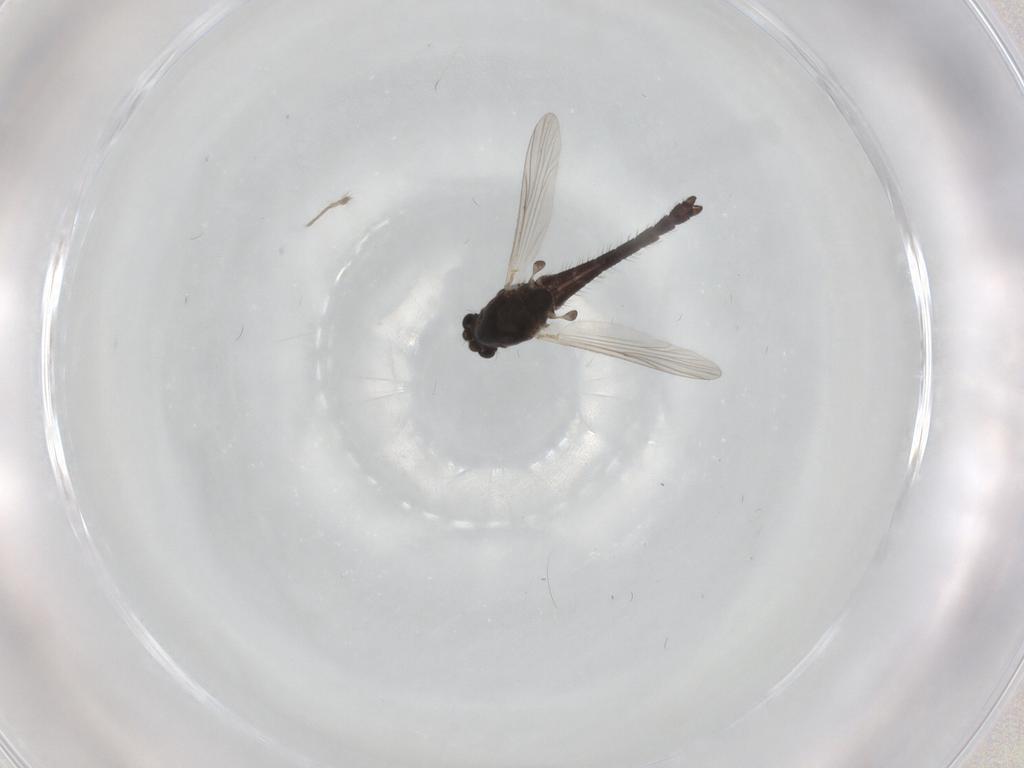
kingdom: Animalia
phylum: Arthropoda
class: Insecta
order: Diptera
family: Chironomidae
